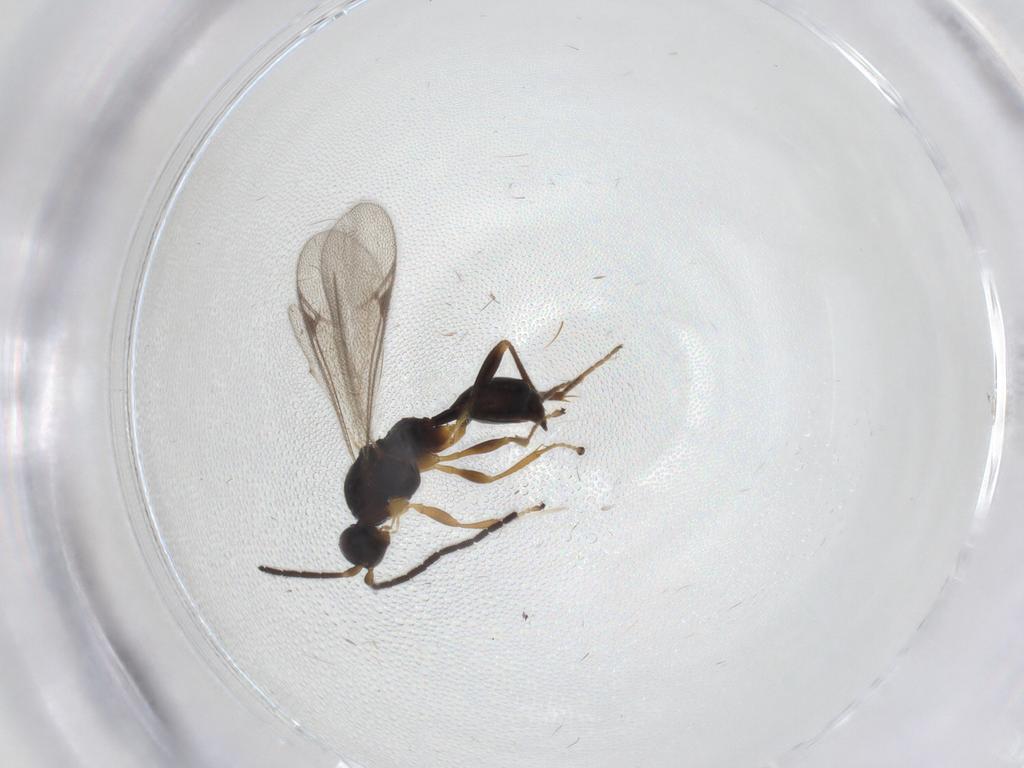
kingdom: Animalia
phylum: Arthropoda
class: Insecta
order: Hymenoptera
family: Proctotrupidae
